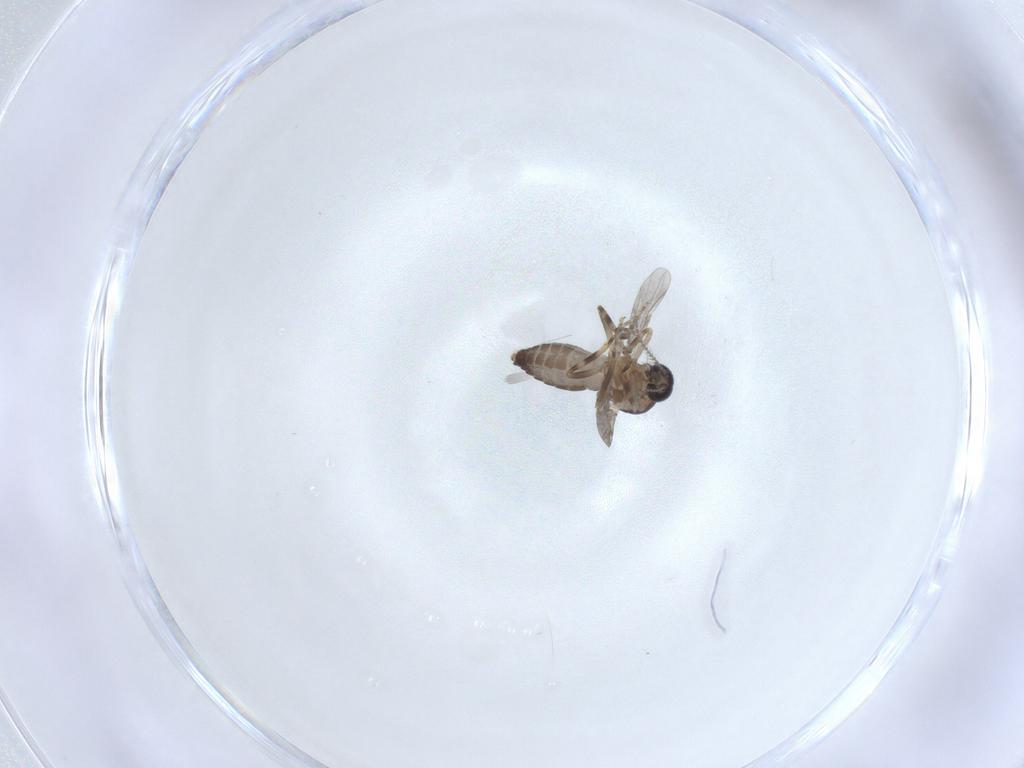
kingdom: Animalia
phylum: Arthropoda
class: Insecta
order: Diptera
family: Ceratopogonidae
